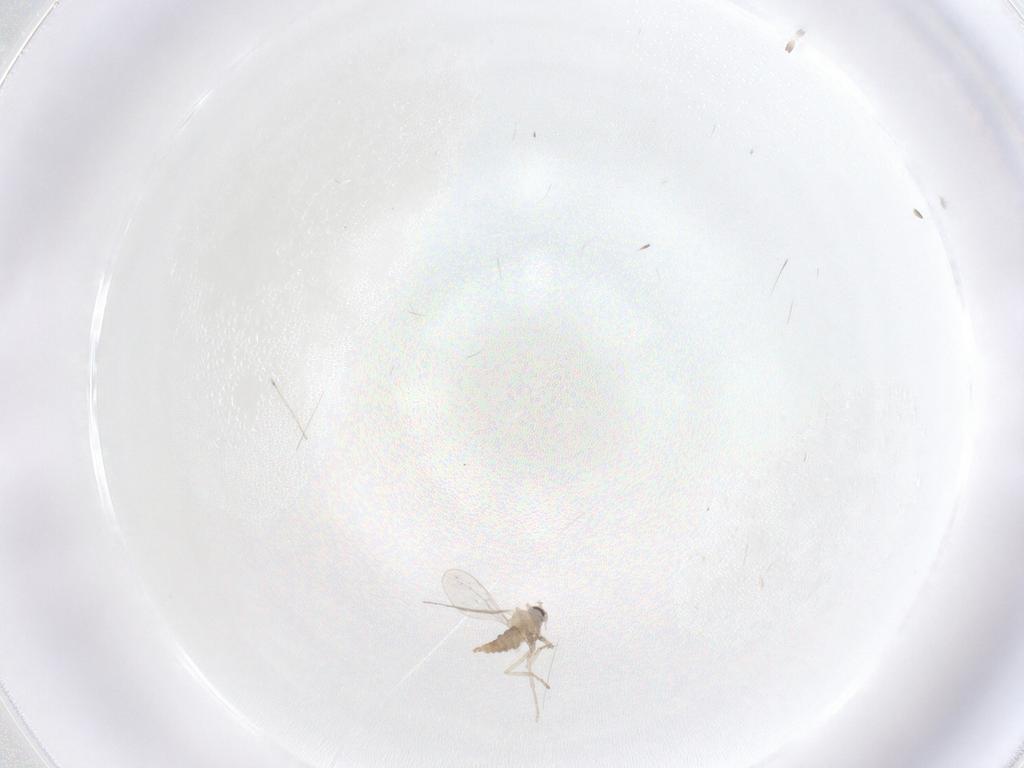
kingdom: Animalia
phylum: Arthropoda
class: Insecta
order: Diptera
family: Cecidomyiidae
